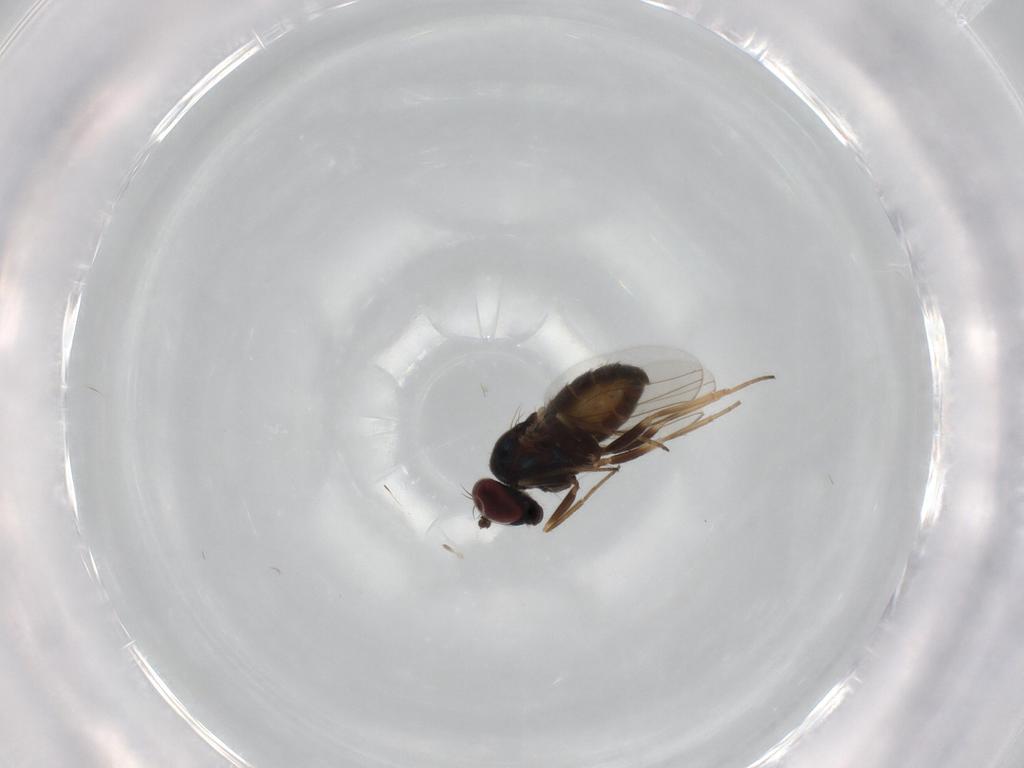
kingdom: Animalia
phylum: Arthropoda
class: Insecta
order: Diptera
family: Dolichopodidae
